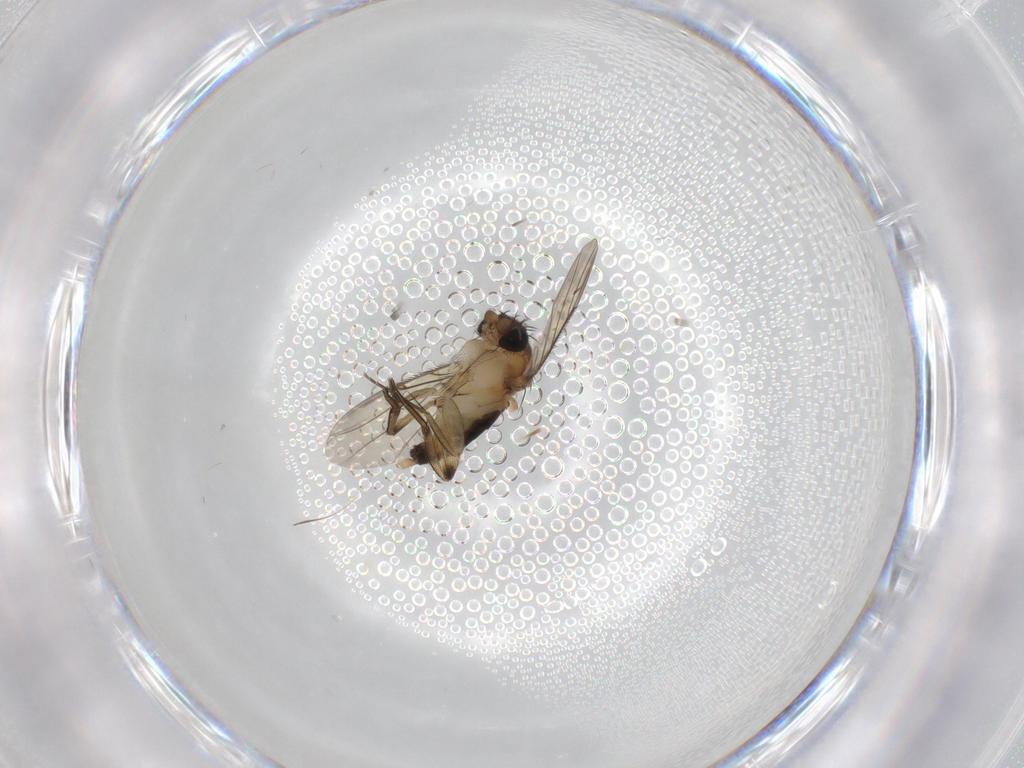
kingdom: Animalia
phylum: Arthropoda
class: Insecta
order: Diptera
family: Phoridae
